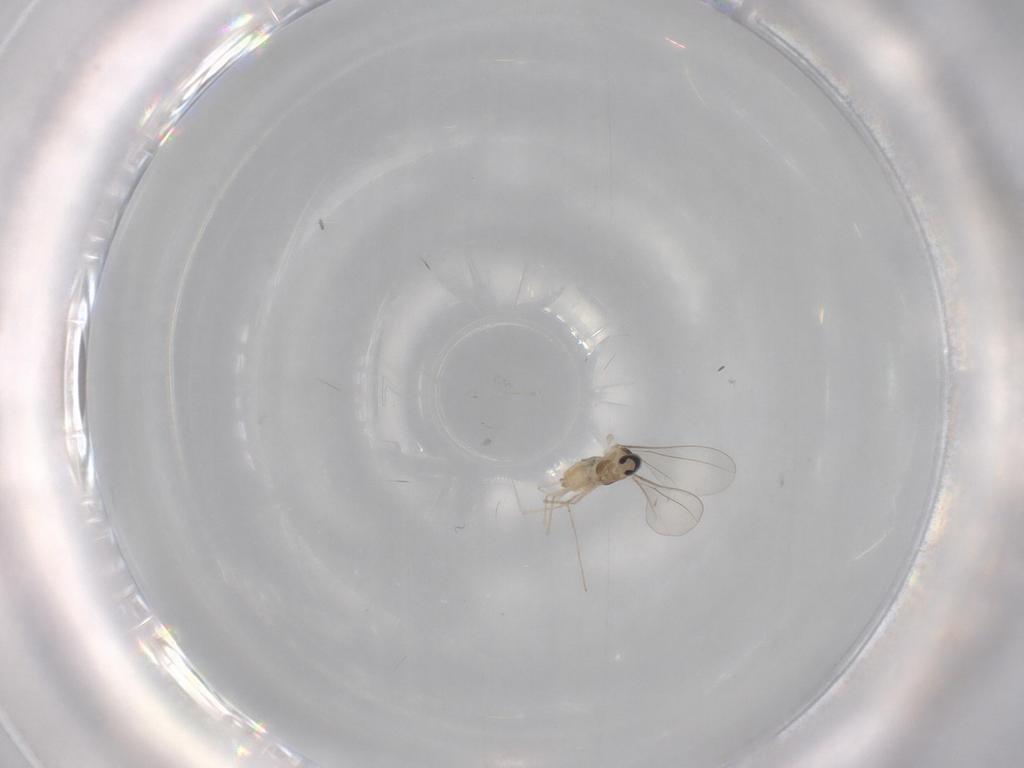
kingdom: Animalia
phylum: Arthropoda
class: Insecta
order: Diptera
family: Cecidomyiidae
